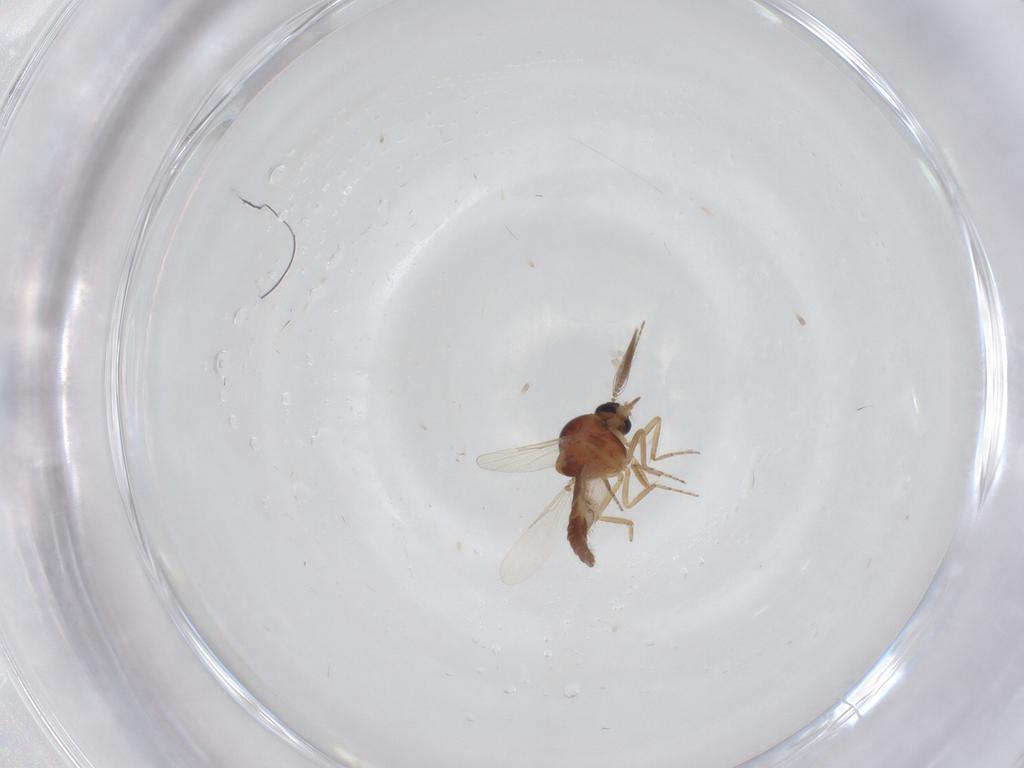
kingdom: Animalia
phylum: Arthropoda
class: Insecta
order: Diptera
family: Ceratopogonidae
